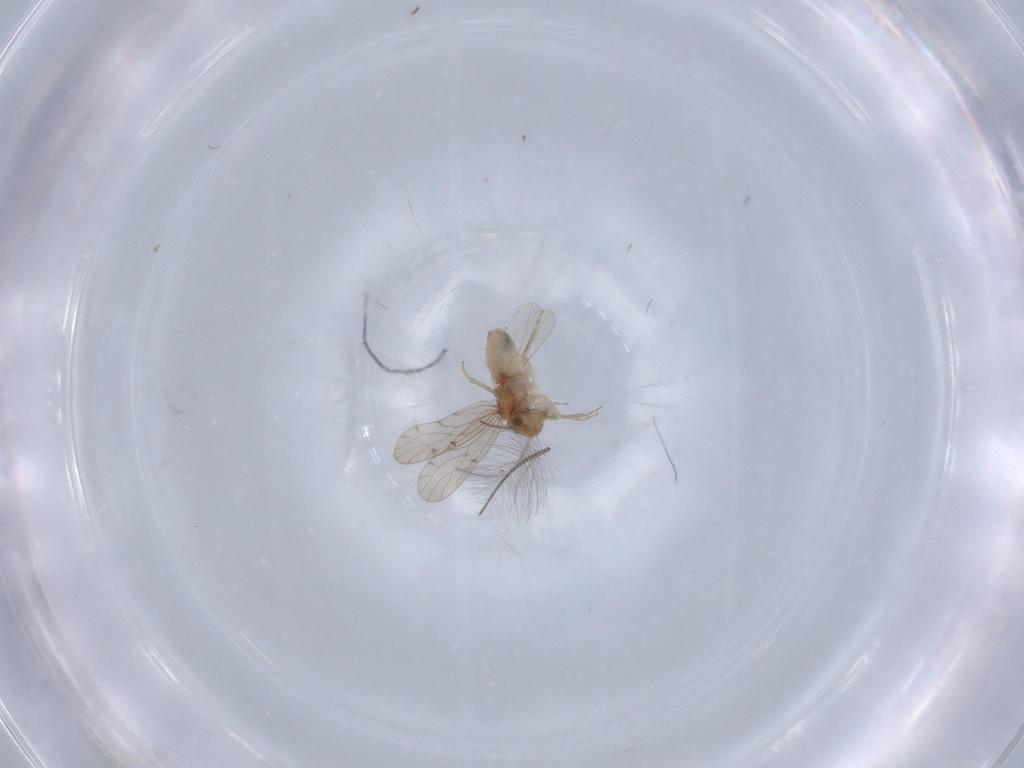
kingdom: Animalia
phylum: Arthropoda
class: Insecta
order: Psocodea
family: Ectopsocidae
